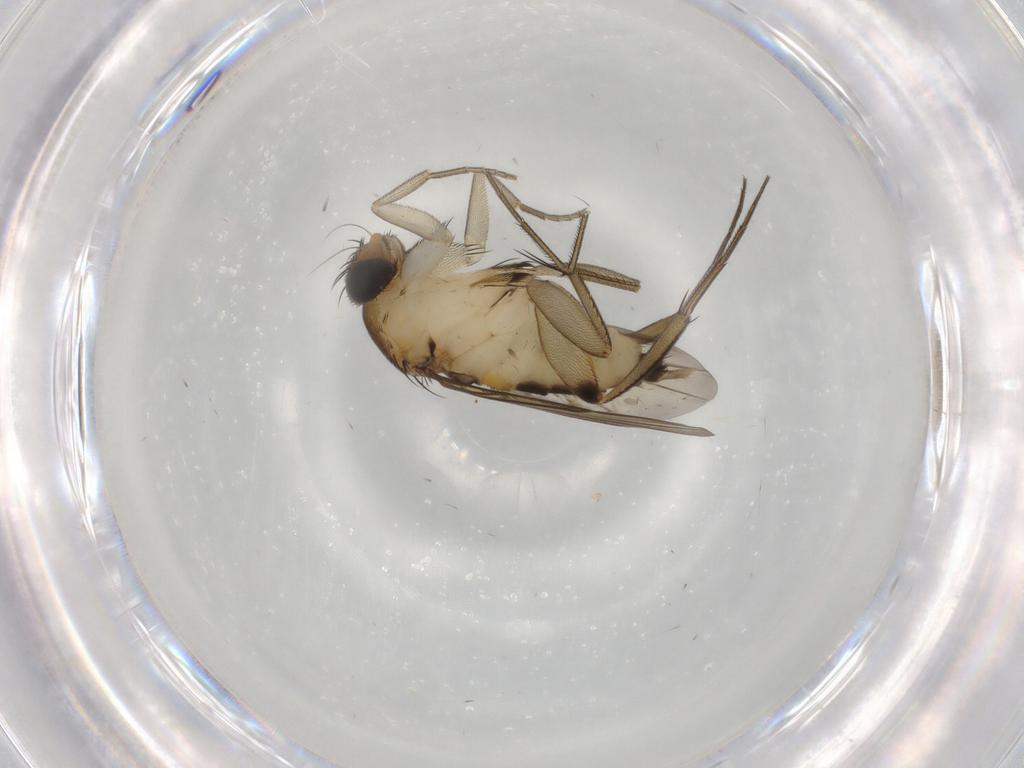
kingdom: Animalia
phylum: Arthropoda
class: Insecta
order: Diptera
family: Phoridae
